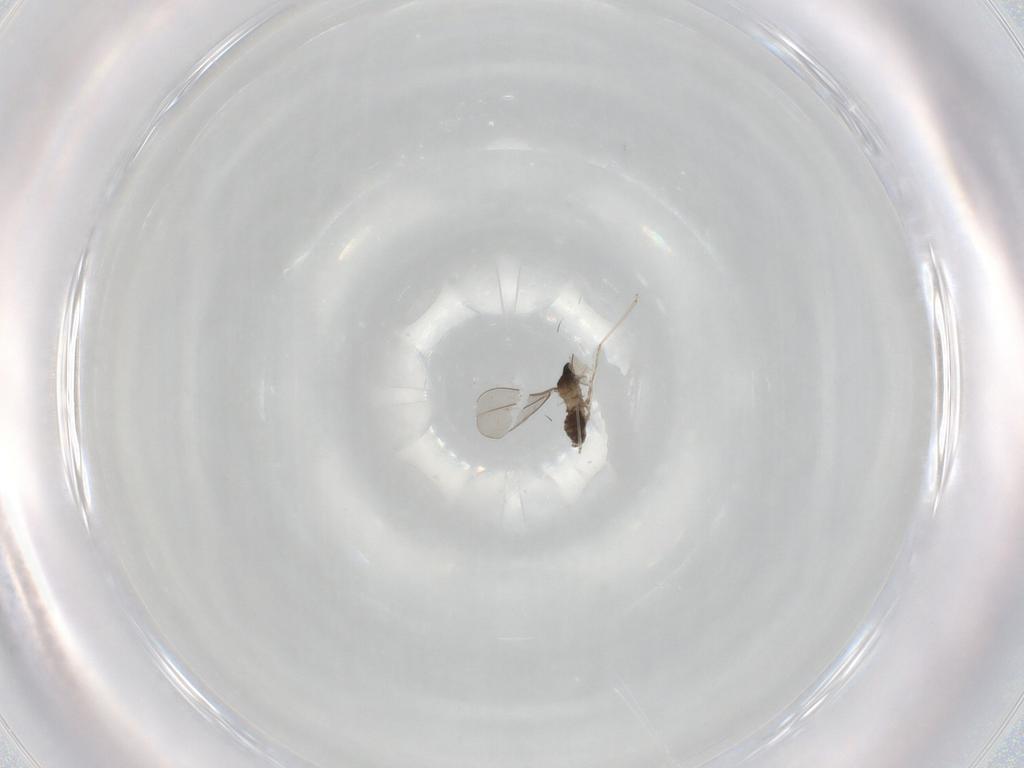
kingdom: Animalia
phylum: Arthropoda
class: Insecta
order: Diptera
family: Cecidomyiidae
